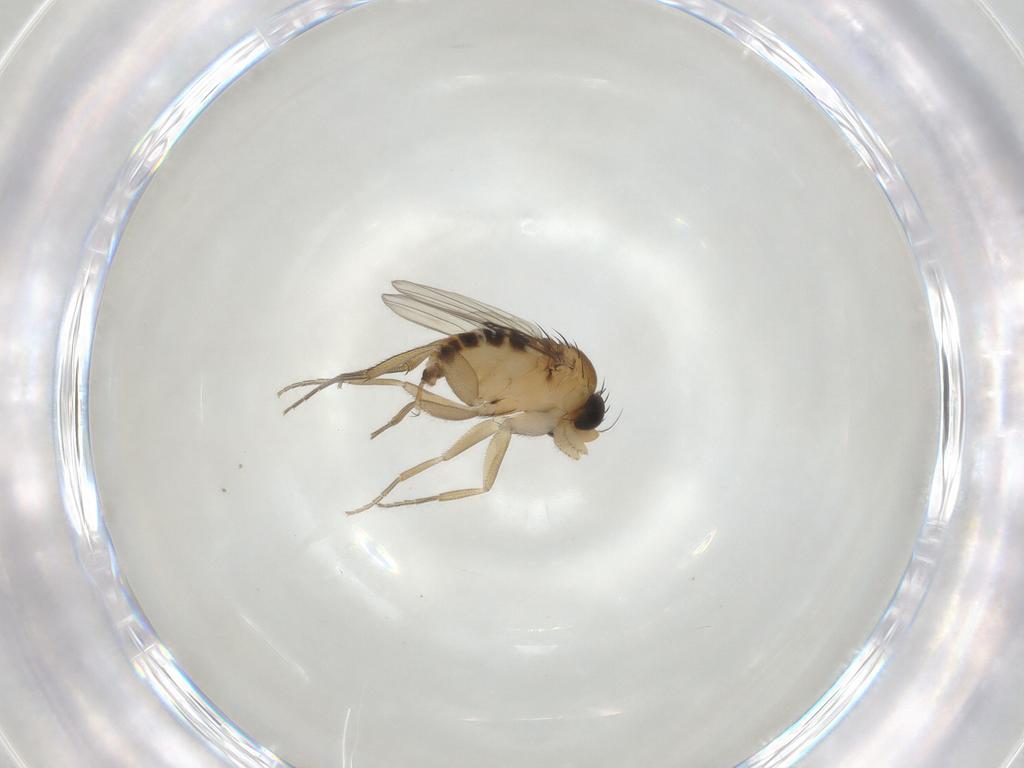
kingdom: Animalia
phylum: Arthropoda
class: Insecta
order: Diptera
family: Phoridae
